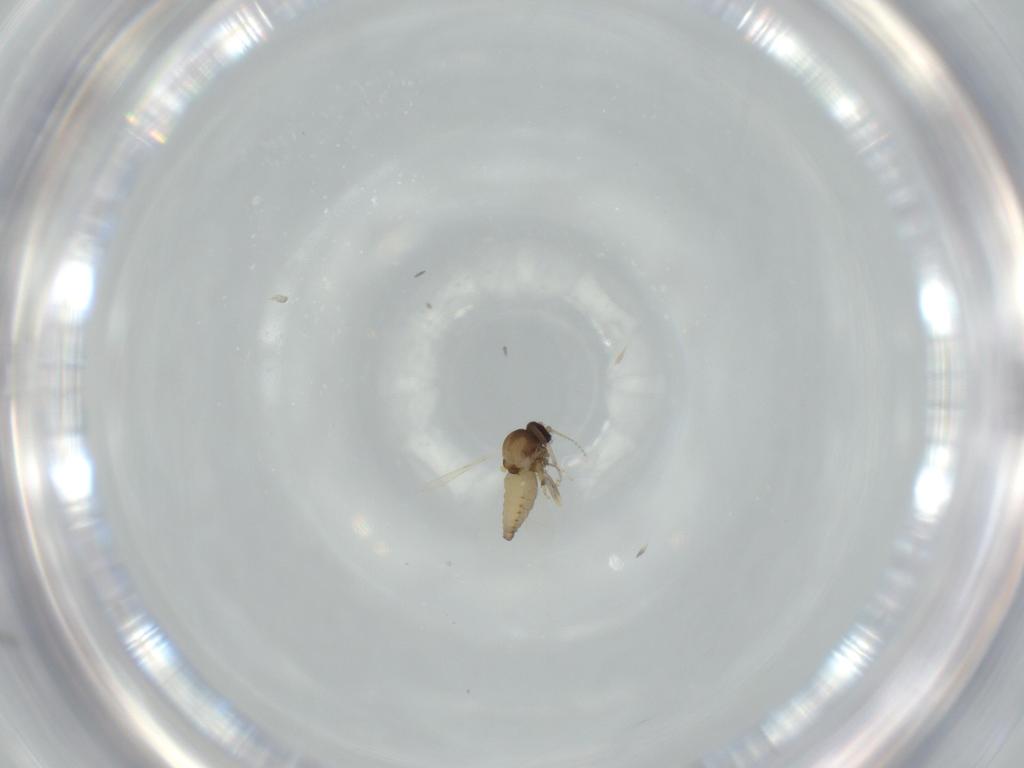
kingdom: Animalia
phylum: Arthropoda
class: Insecta
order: Diptera
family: Ceratopogonidae
